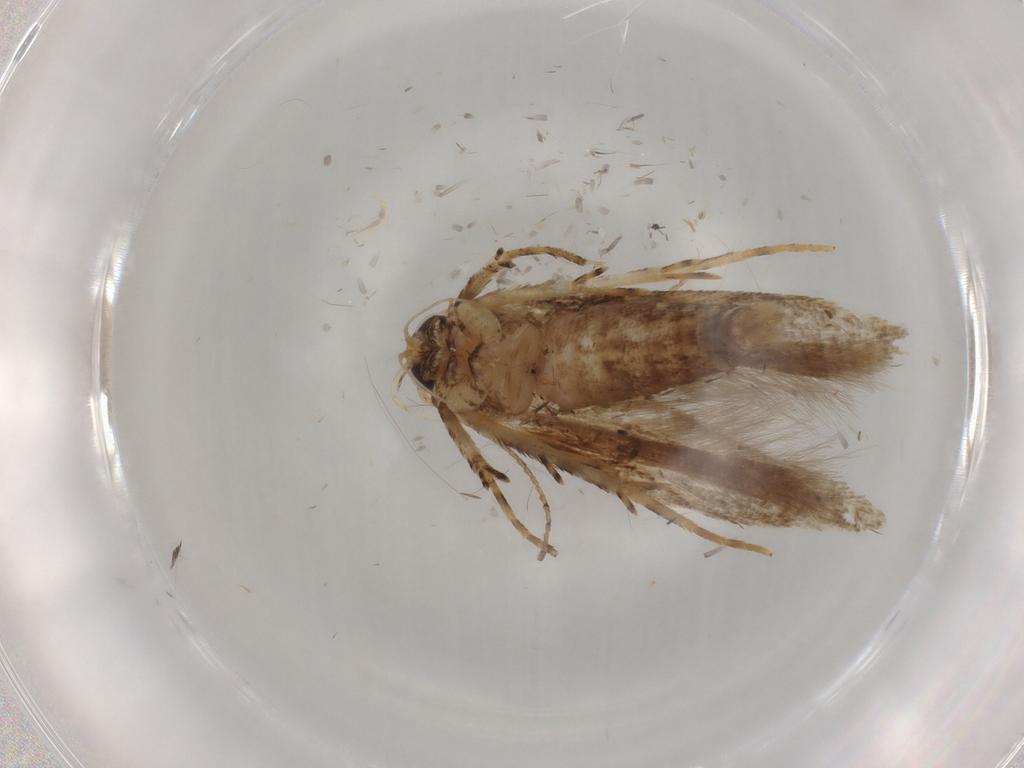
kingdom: Animalia
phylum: Arthropoda
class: Insecta
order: Lepidoptera
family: Gelechiidae
